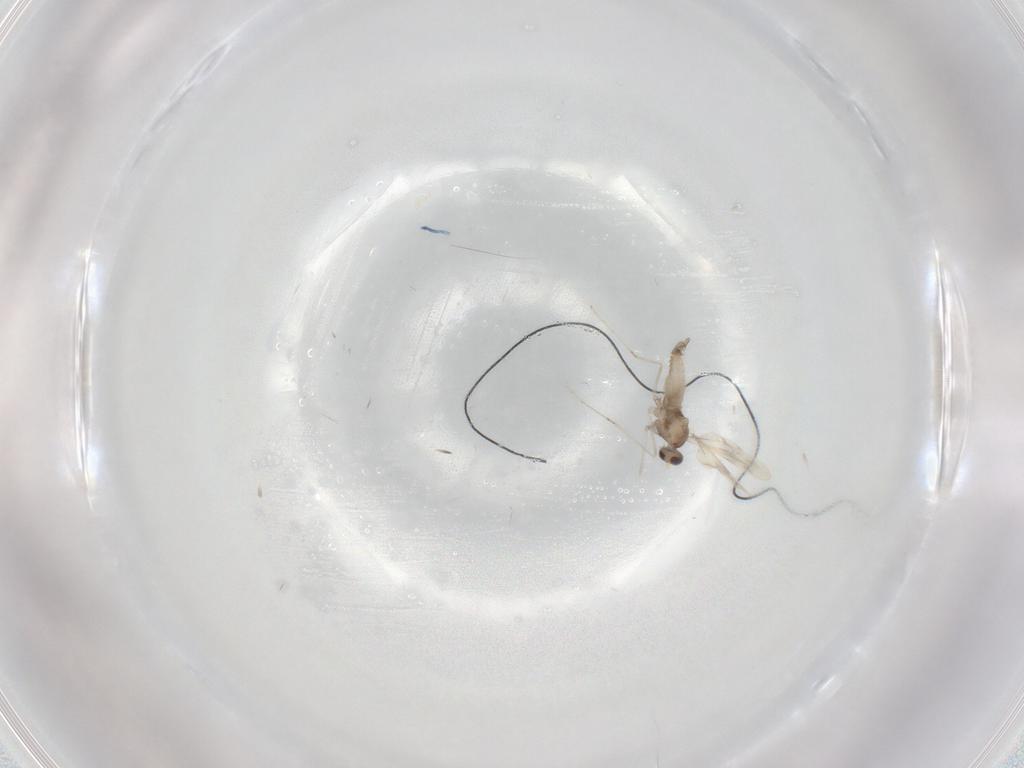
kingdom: Animalia
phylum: Arthropoda
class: Insecta
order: Diptera
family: Cecidomyiidae
